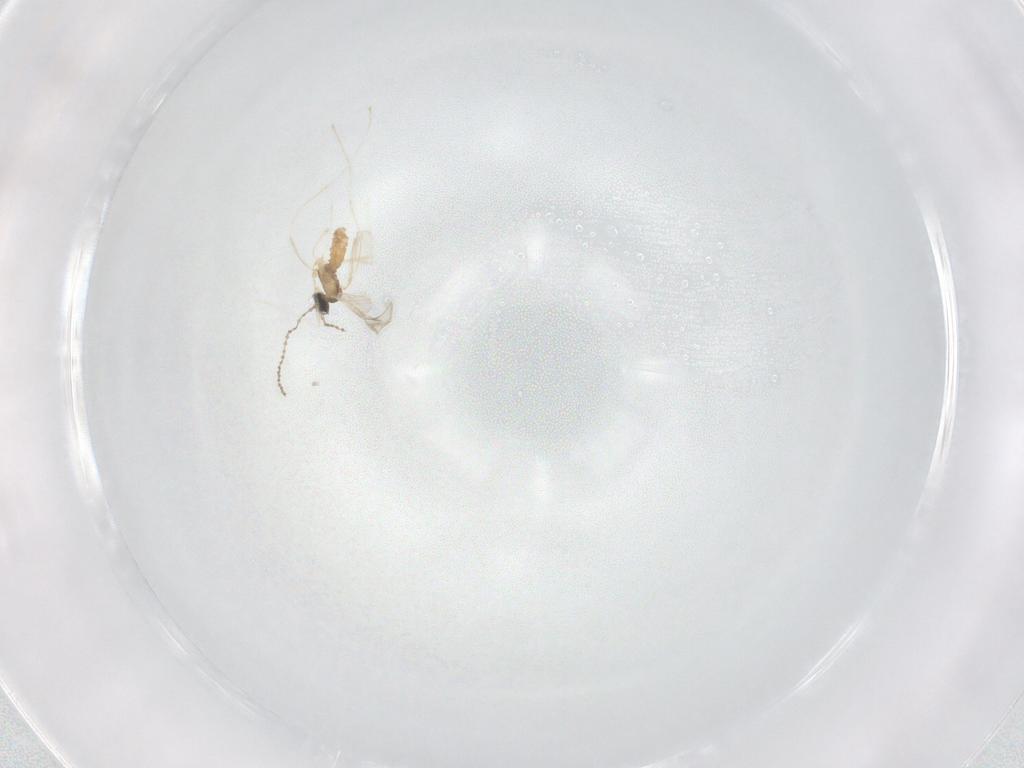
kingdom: Animalia
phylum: Arthropoda
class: Insecta
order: Diptera
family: Cecidomyiidae
